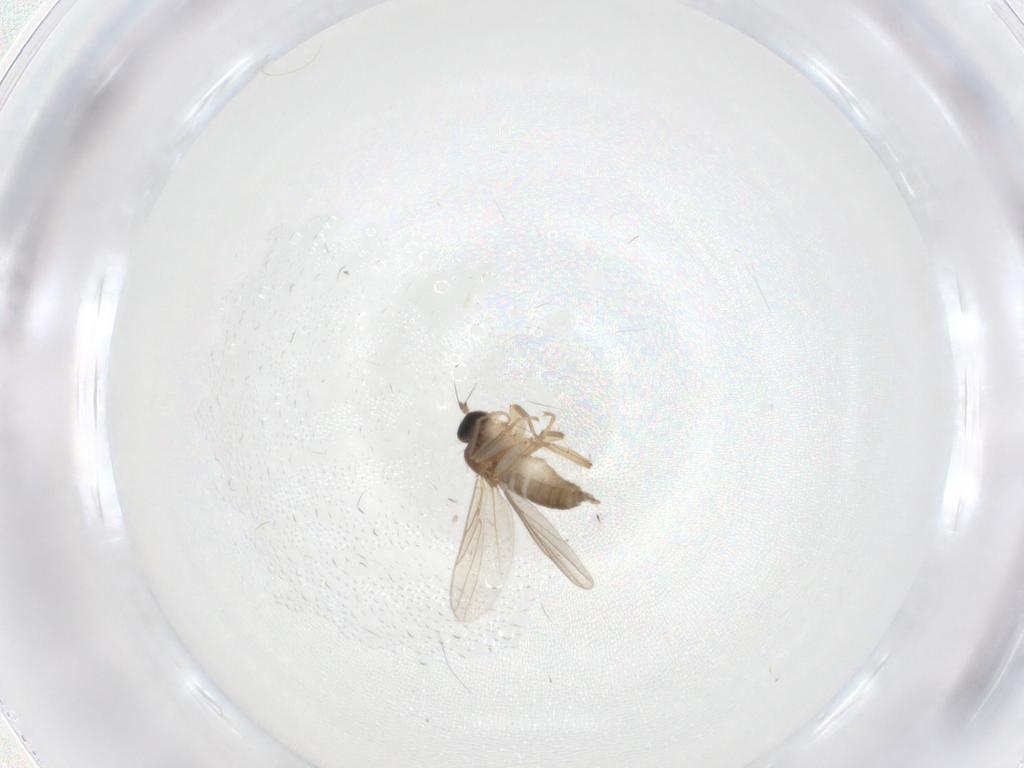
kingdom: Animalia
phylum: Arthropoda
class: Insecta
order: Diptera
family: Hybotidae
